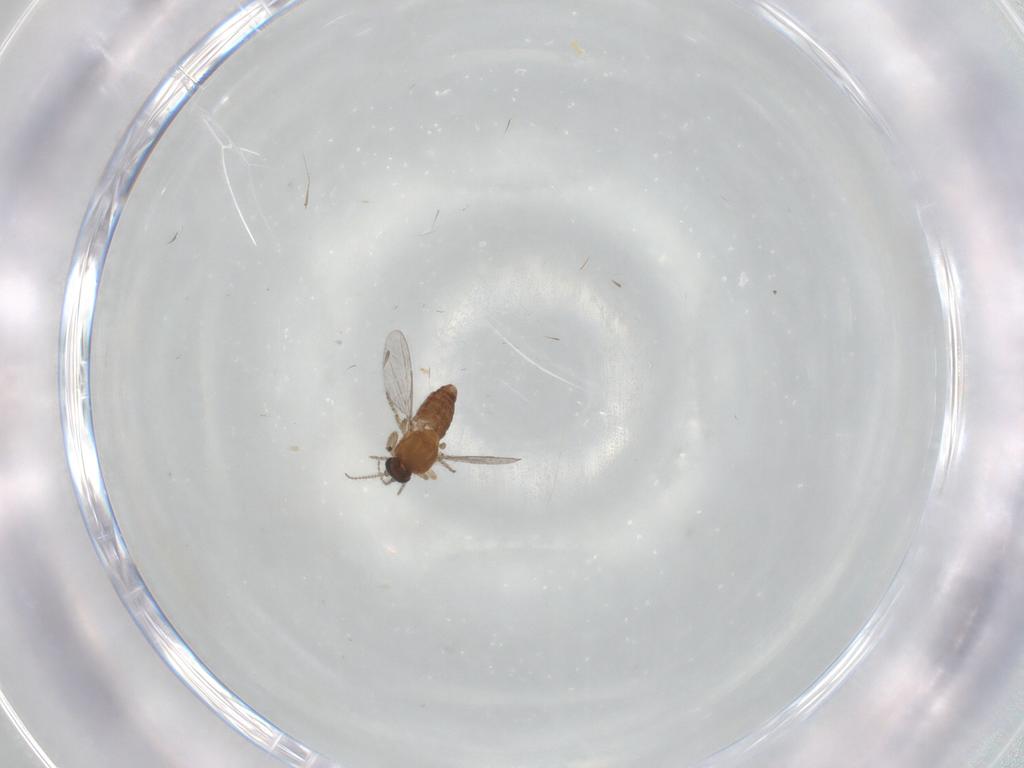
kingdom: Animalia
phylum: Arthropoda
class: Insecta
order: Diptera
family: Ceratopogonidae
